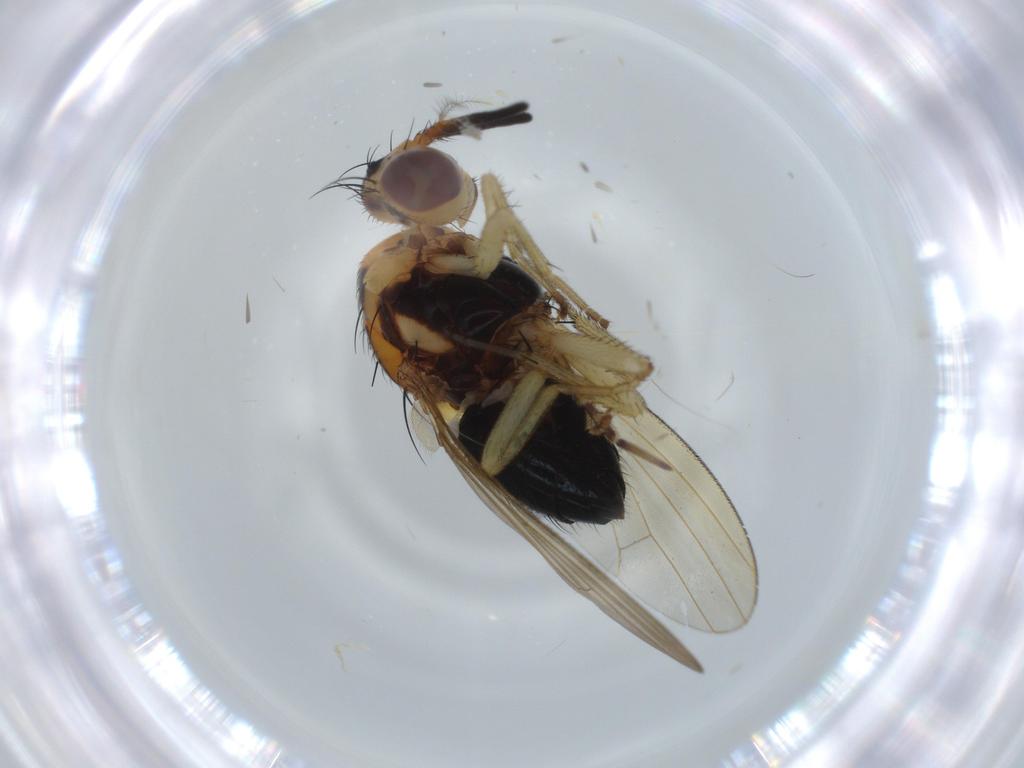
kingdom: Animalia
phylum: Arthropoda
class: Insecta
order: Diptera
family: Lauxaniidae
